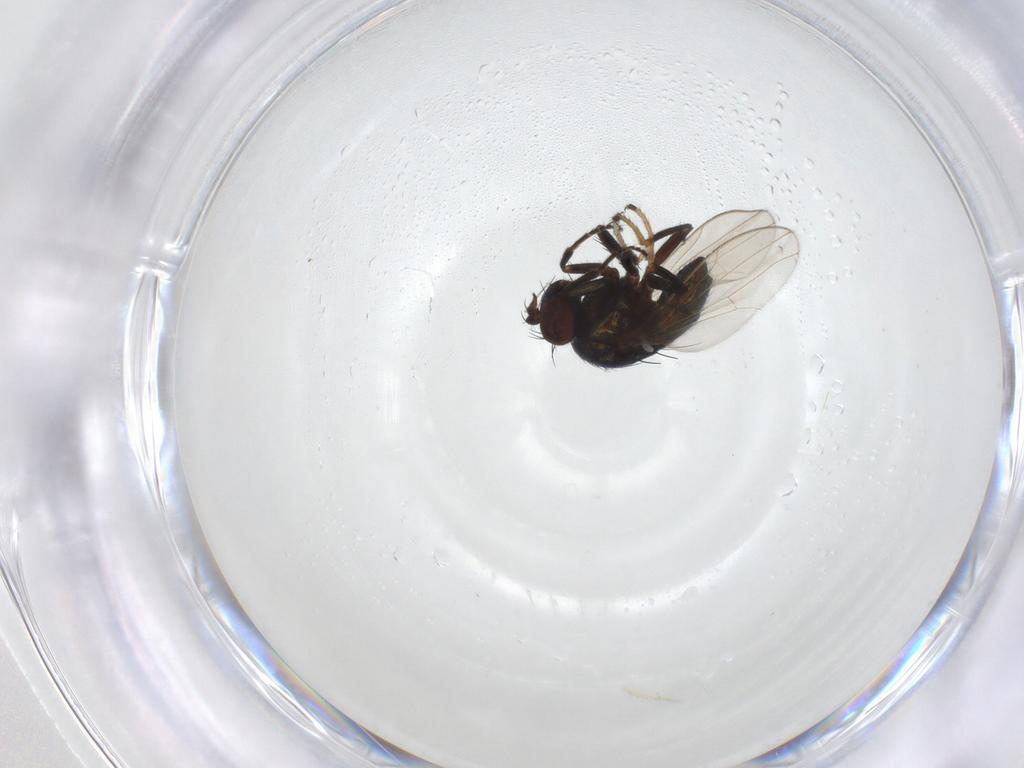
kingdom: Animalia
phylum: Arthropoda
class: Insecta
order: Diptera
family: Ephydridae
